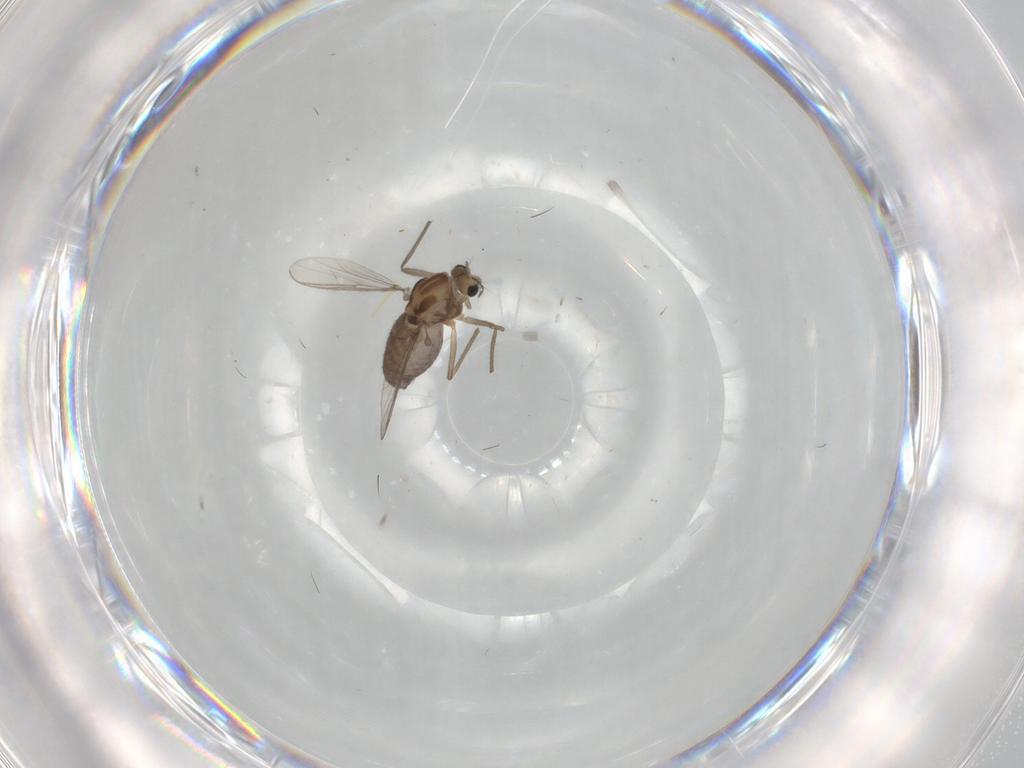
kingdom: Animalia
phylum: Arthropoda
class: Insecta
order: Diptera
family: Chironomidae
